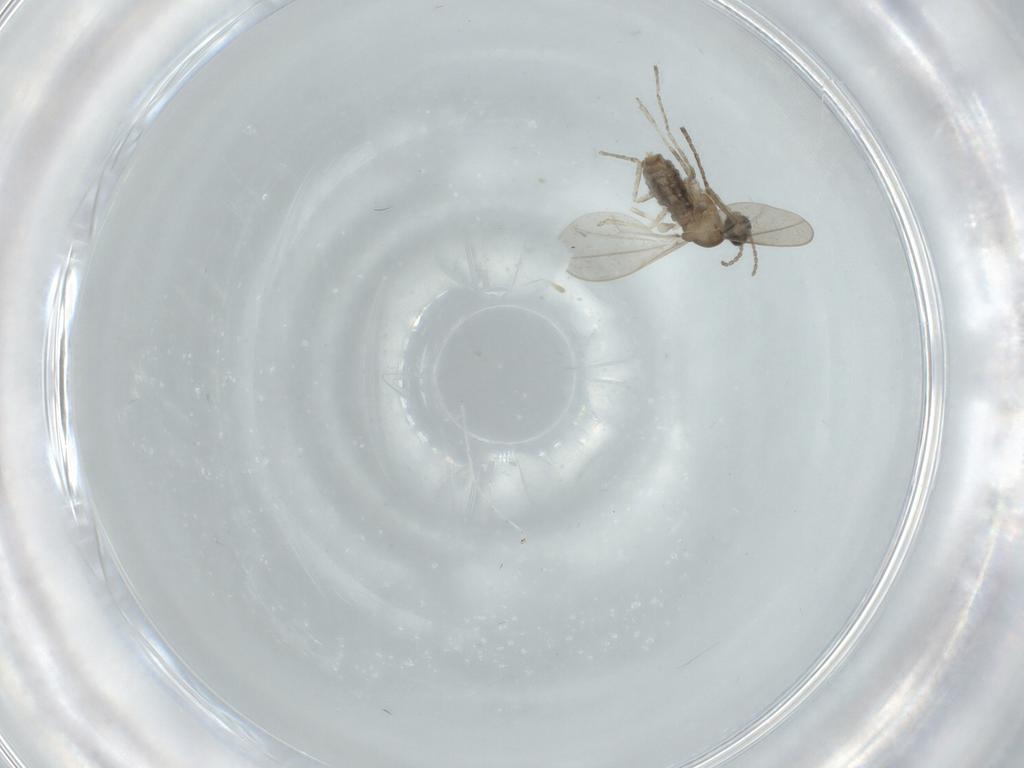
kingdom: Animalia
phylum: Arthropoda
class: Insecta
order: Diptera
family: Cecidomyiidae
